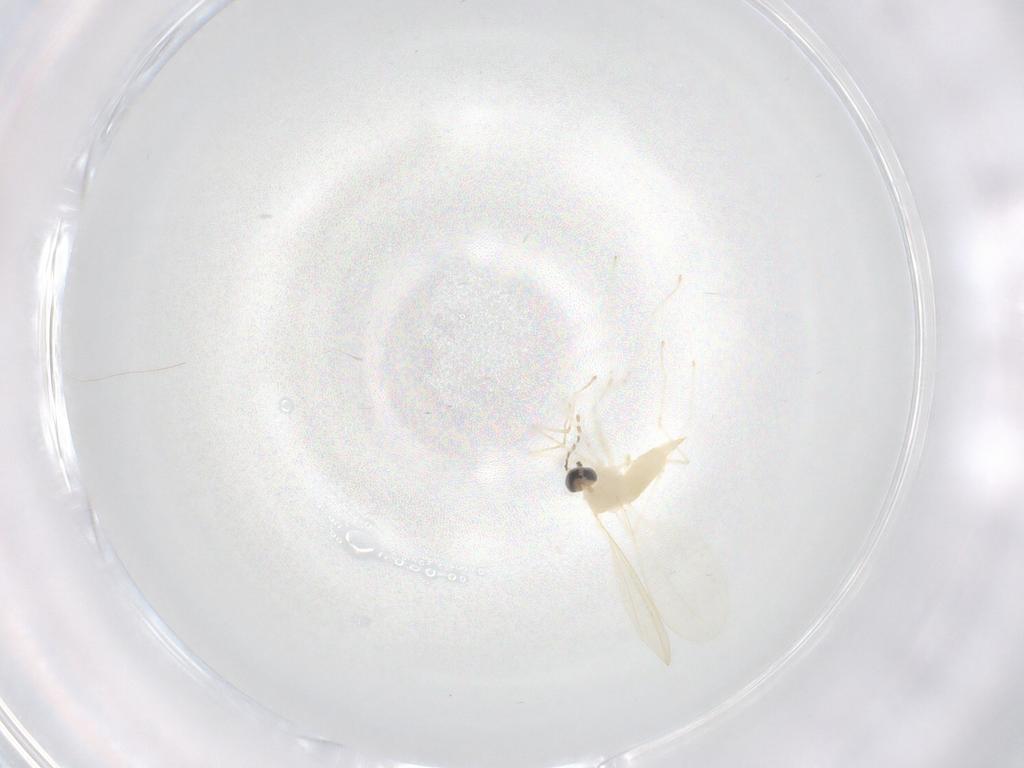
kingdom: Animalia
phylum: Arthropoda
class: Insecta
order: Diptera
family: Cecidomyiidae
